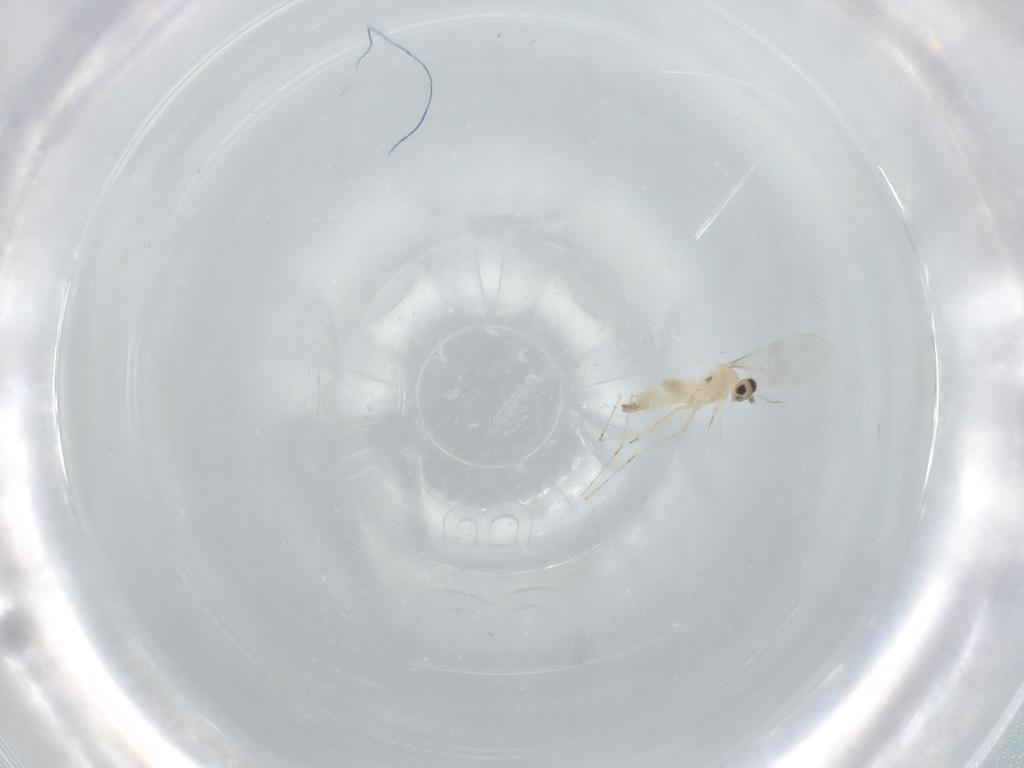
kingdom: Animalia
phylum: Arthropoda
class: Insecta
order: Diptera
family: Cecidomyiidae
